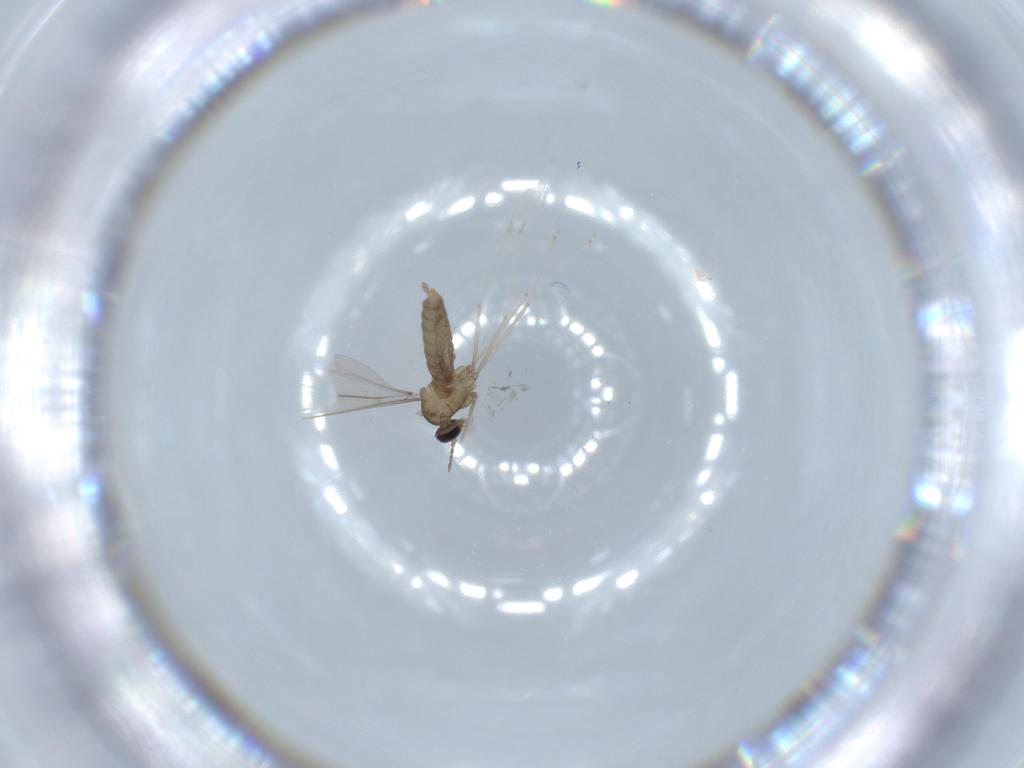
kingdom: Animalia
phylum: Arthropoda
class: Insecta
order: Diptera
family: Cecidomyiidae
